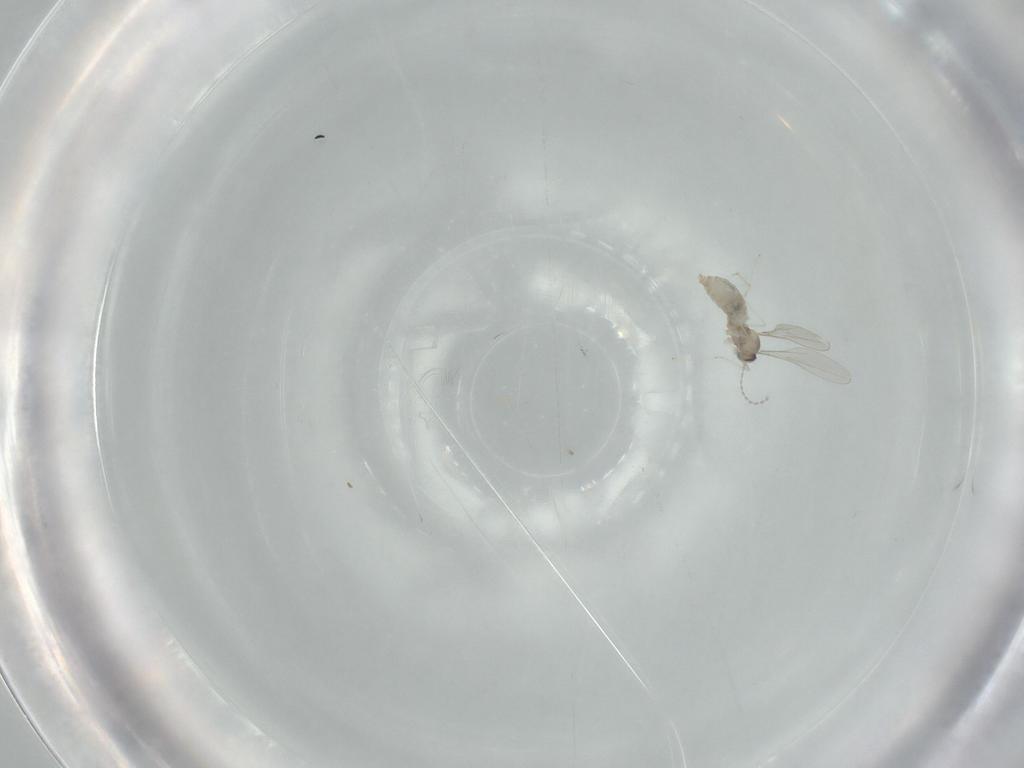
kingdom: Animalia
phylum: Arthropoda
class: Insecta
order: Diptera
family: Cecidomyiidae
